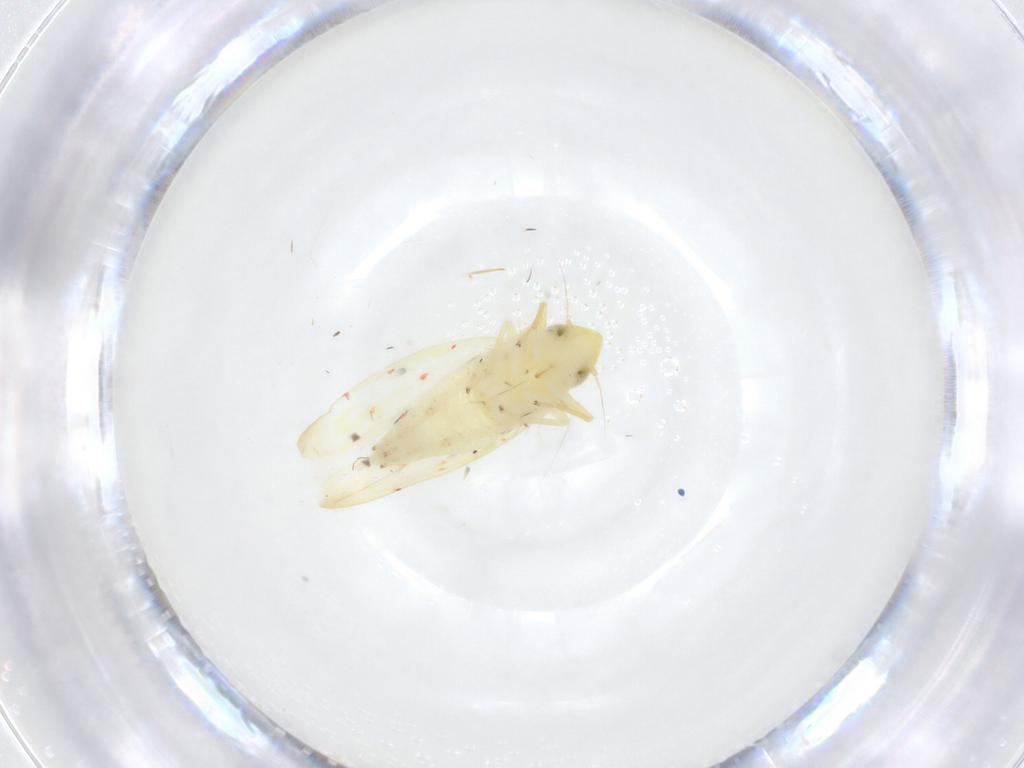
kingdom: Animalia
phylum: Arthropoda
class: Insecta
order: Hemiptera
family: Cicadellidae
